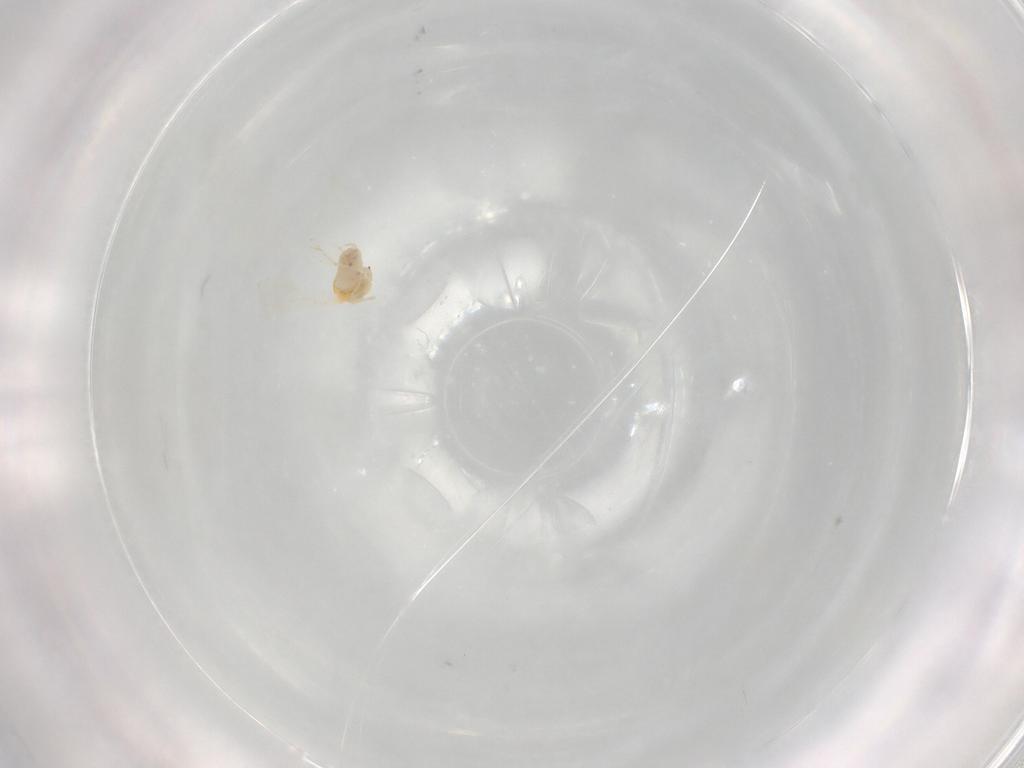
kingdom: Animalia
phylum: Arthropoda
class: Insecta
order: Hemiptera
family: Aleyrodidae
